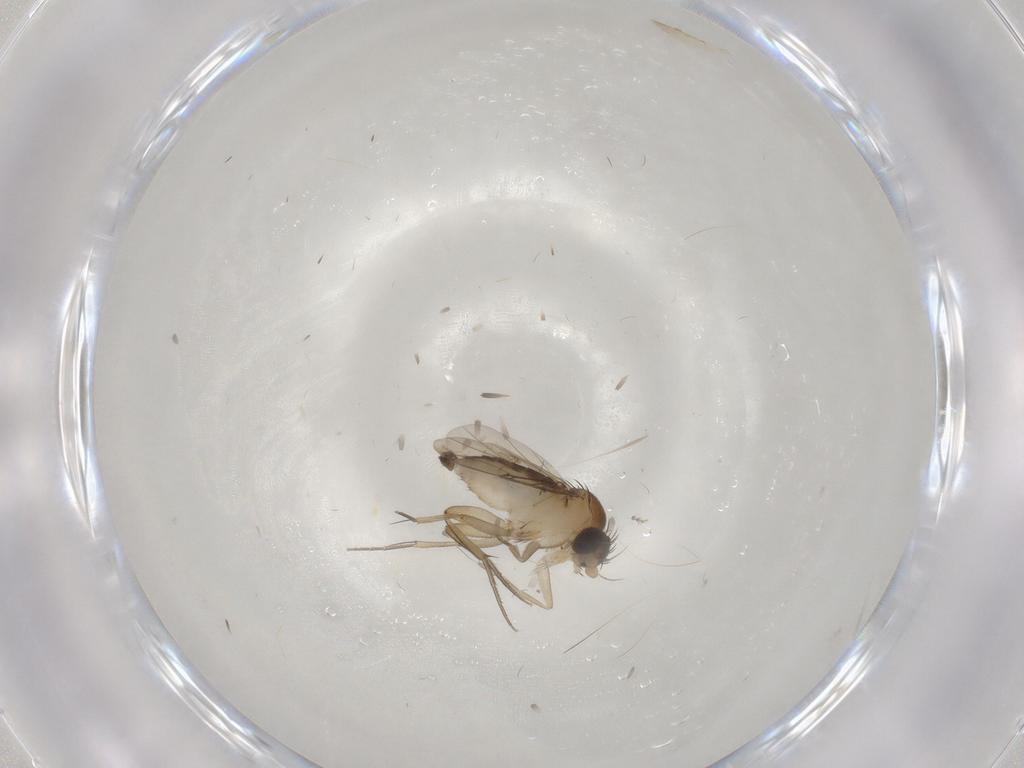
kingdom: Animalia
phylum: Arthropoda
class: Insecta
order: Diptera
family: Phoridae
